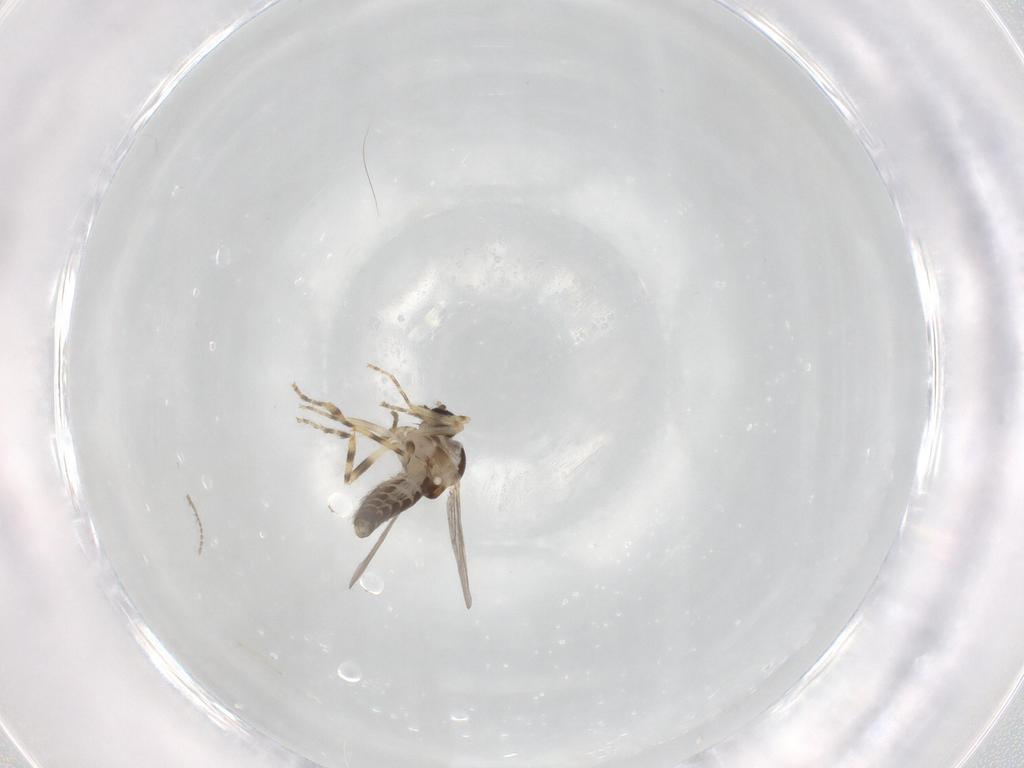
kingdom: Animalia
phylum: Arthropoda
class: Insecta
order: Diptera
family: Ceratopogonidae
